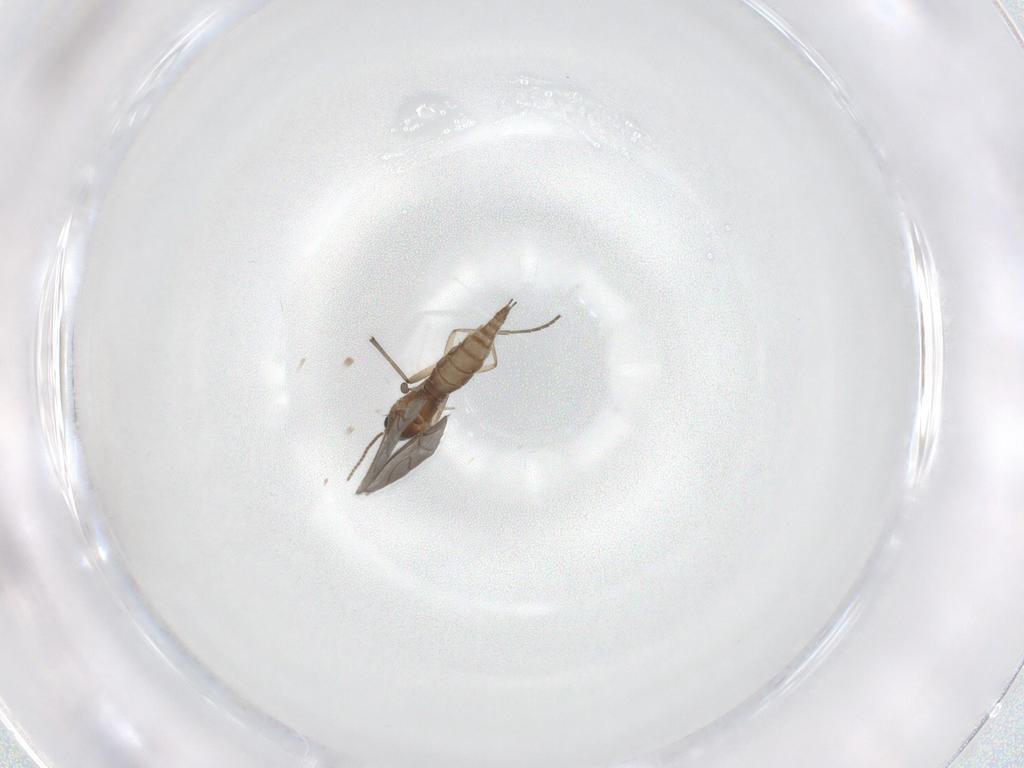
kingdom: Animalia
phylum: Arthropoda
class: Insecta
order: Diptera
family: Sciaridae
